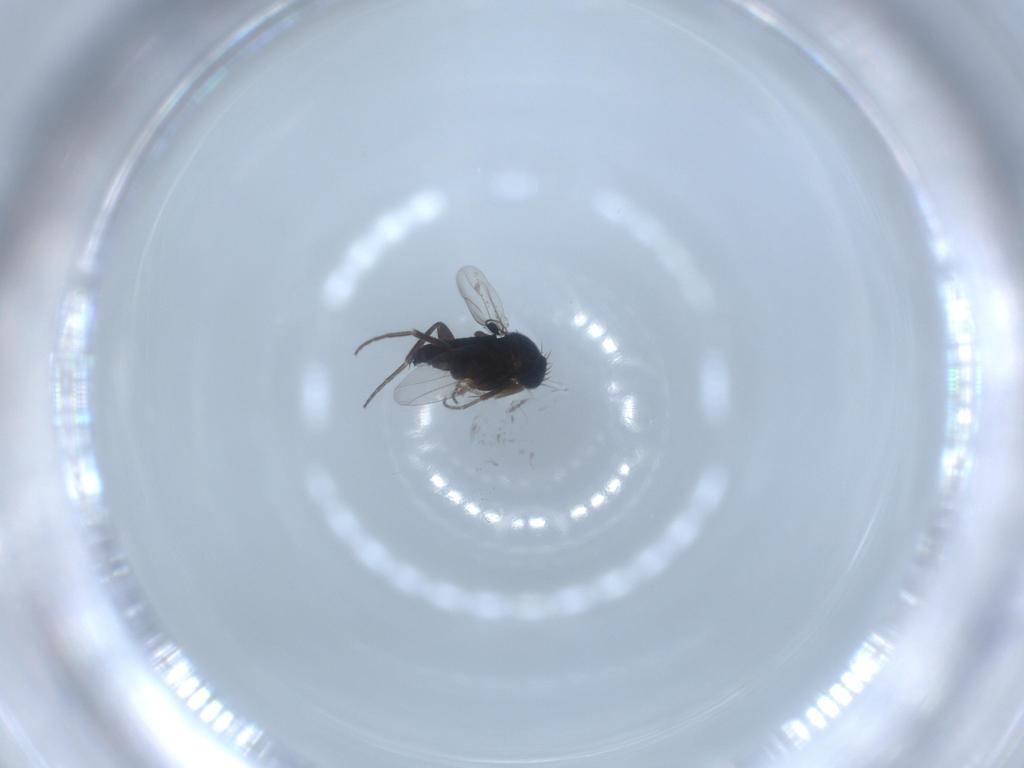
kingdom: Animalia
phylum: Arthropoda
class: Insecta
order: Diptera
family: Phoridae
